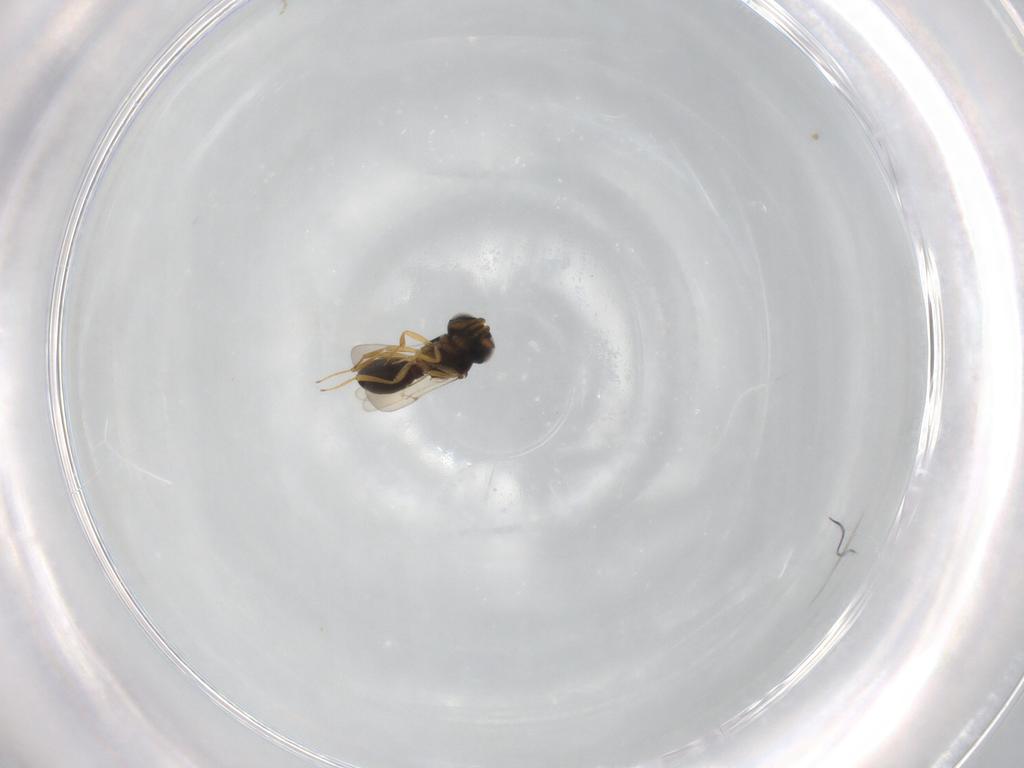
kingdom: Animalia
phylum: Arthropoda
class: Insecta
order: Hymenoptera
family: Scelionidae
